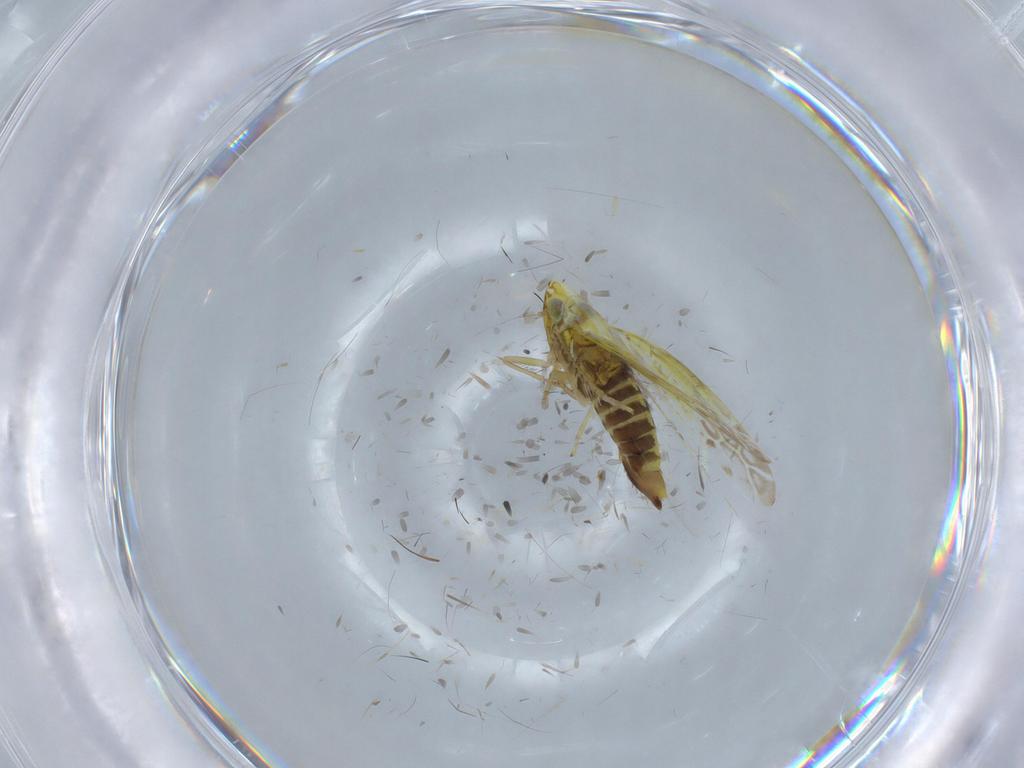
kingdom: Animalia
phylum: Arthropoda
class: Insecta
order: Hemiptera
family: Cicadellidae
